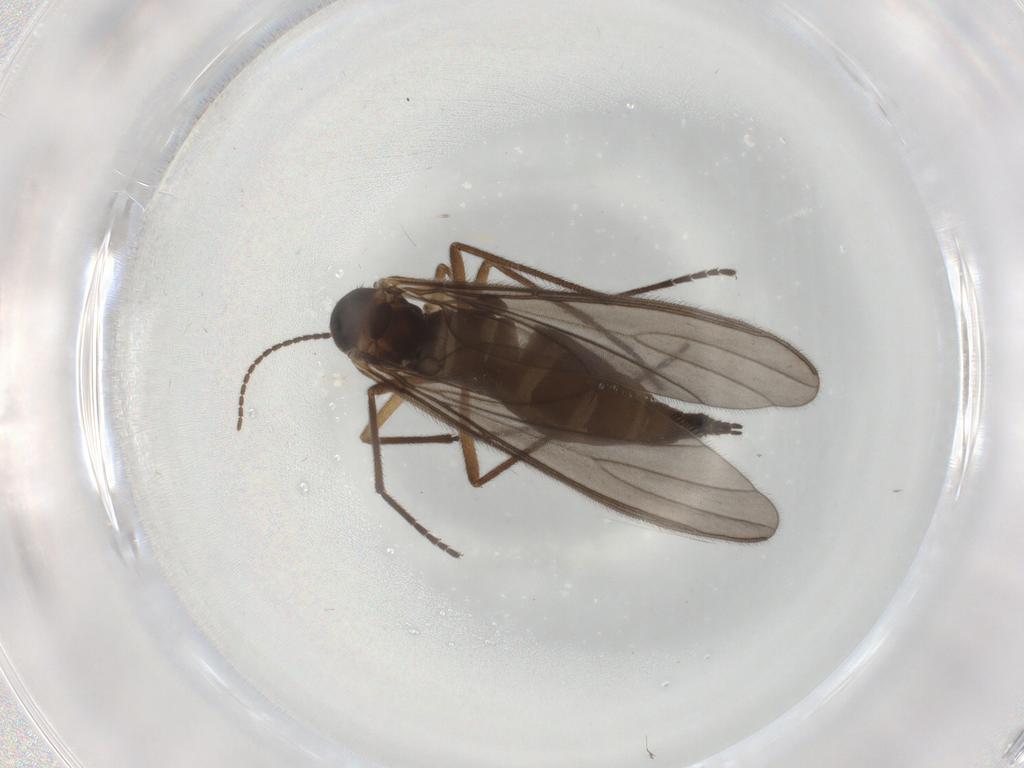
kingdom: Animalia
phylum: Arthropoda
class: Insecta
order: Diptera
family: Sciaridae
